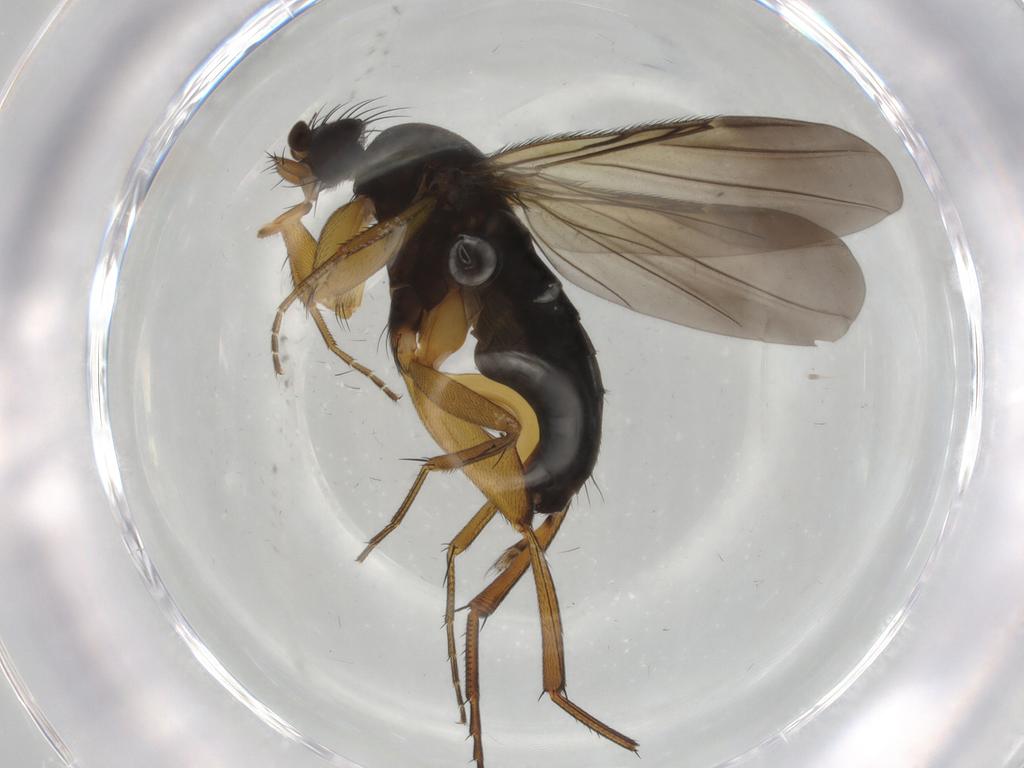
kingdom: Animalia
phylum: Arthropoda
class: Insecta
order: Diptera
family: Phoridae
